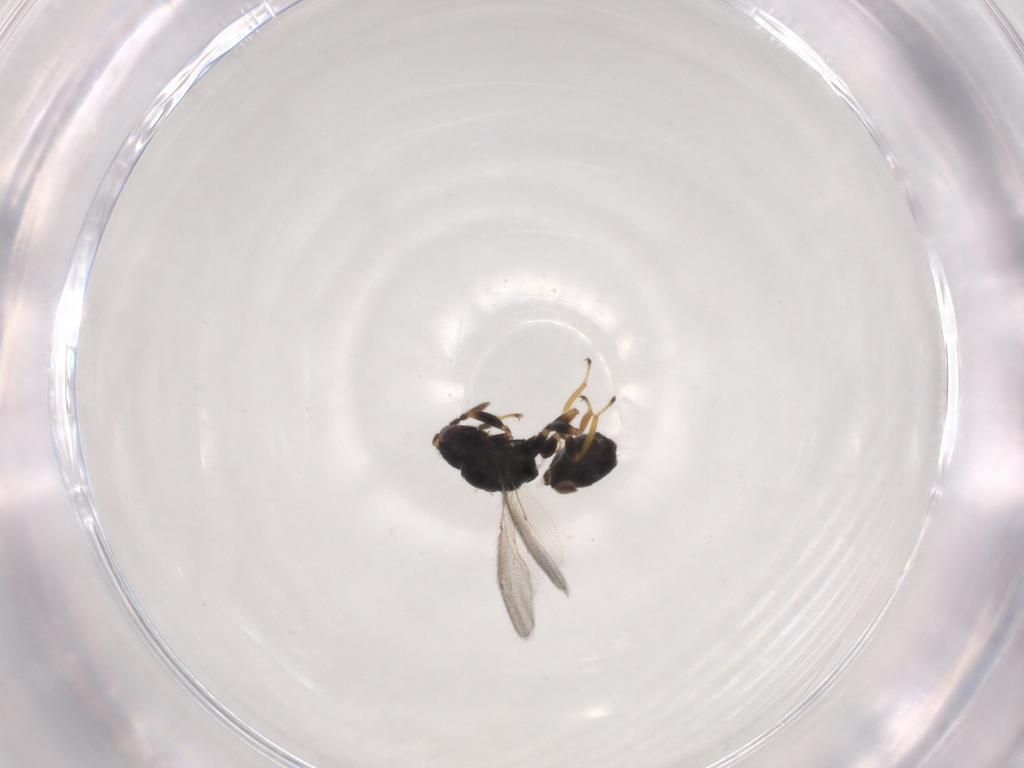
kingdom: Animalia
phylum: Arthropoda
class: Insecta
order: Hymenoptera
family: Eulophidae
